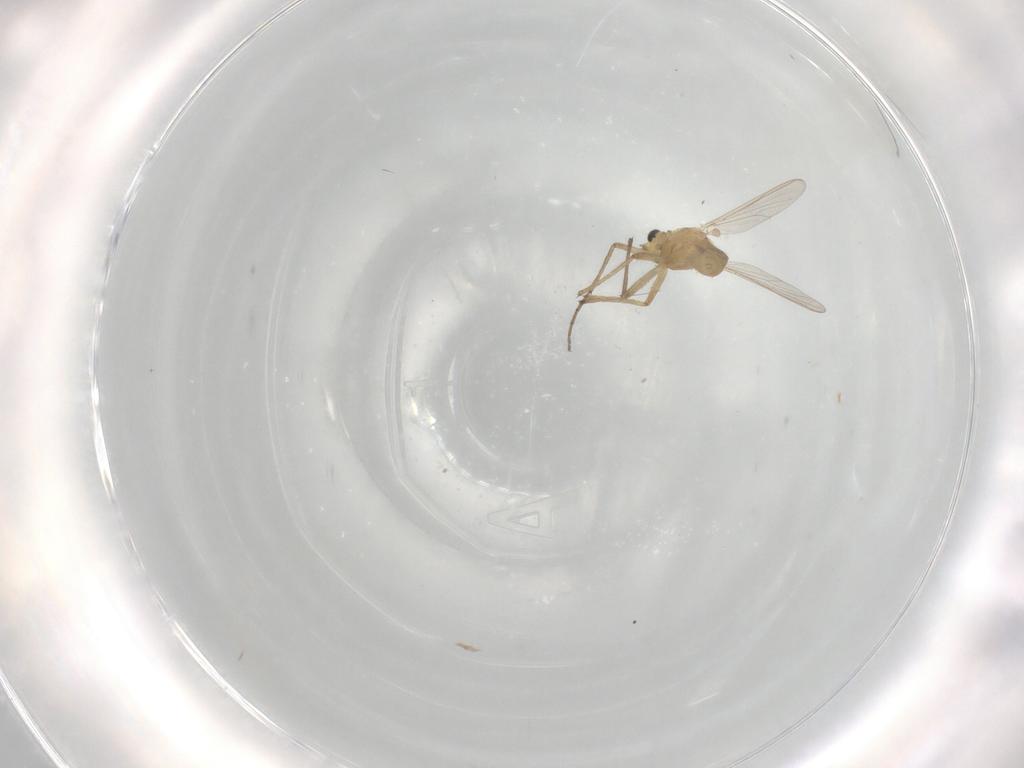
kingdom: Animalia
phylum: Arthropoda
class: Insecta
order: Diptera
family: Chironomidae
